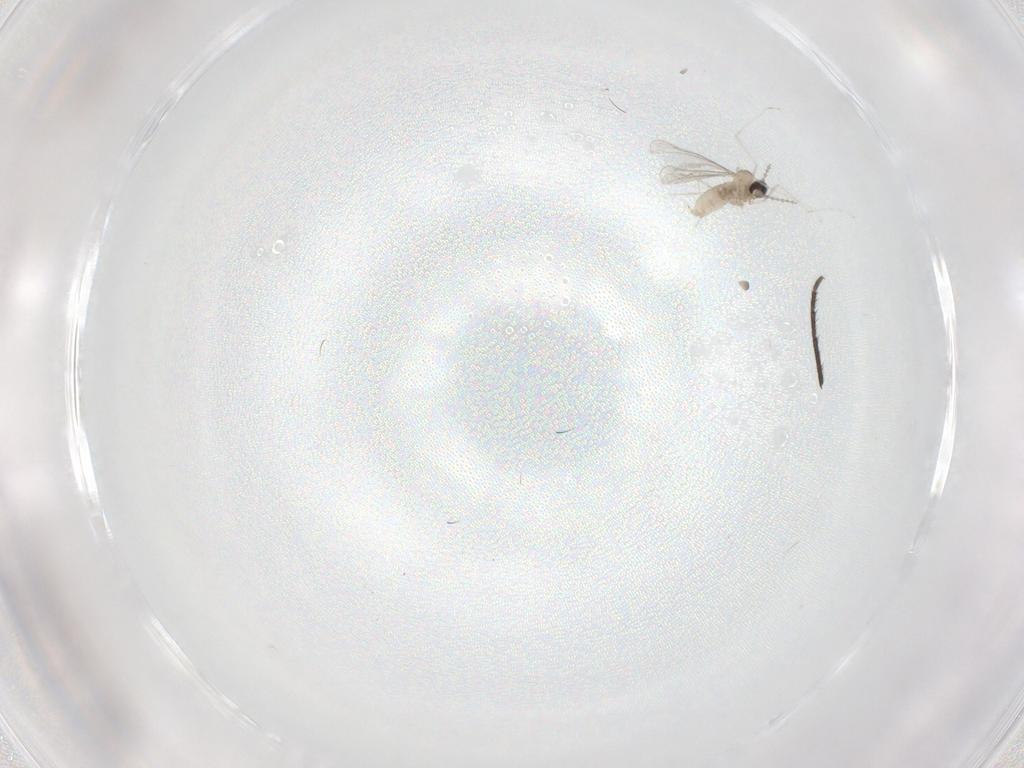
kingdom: Animalia
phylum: Arthropoda
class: Insecta
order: Diptera
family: Mycetophilidae
